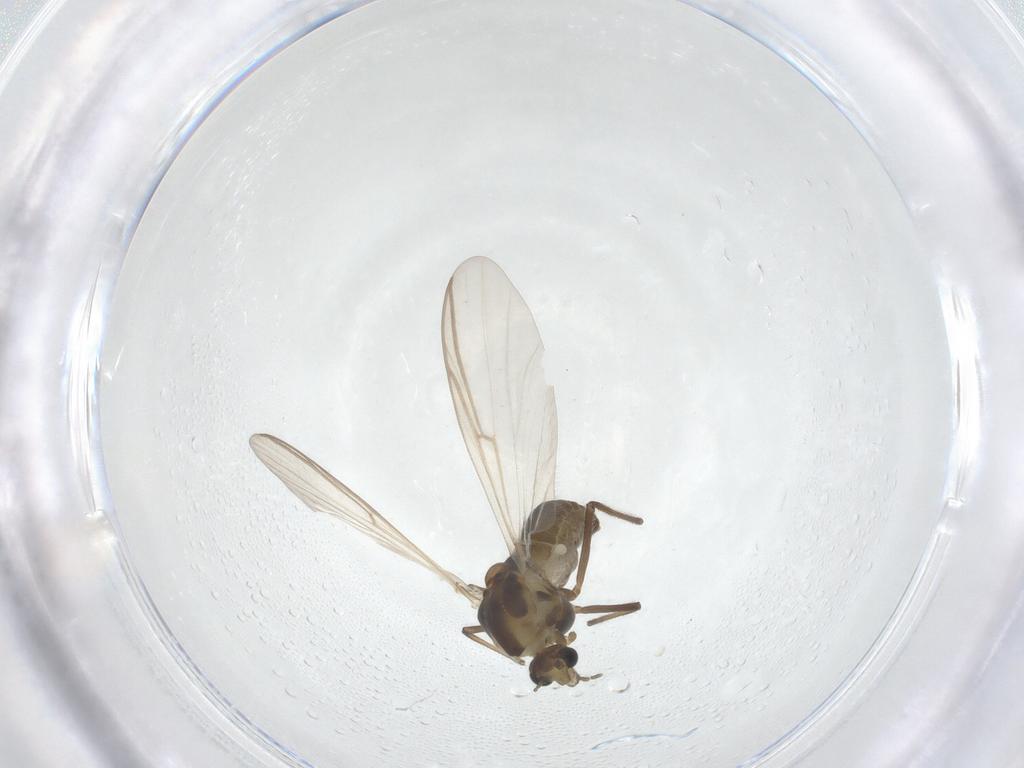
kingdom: Animalia
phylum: Arthropoda
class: Insecta
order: Diptera
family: Chironomidae
